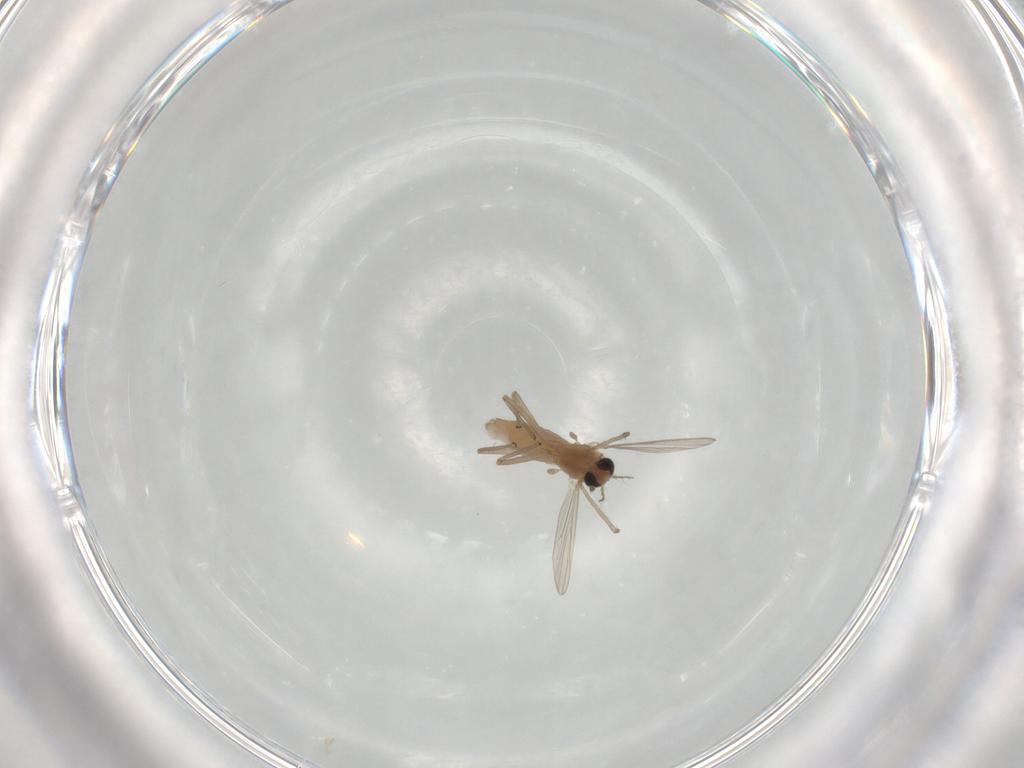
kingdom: Animalia
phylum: Arthropoda
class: Insecta
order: Diptera
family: Chironomidae
